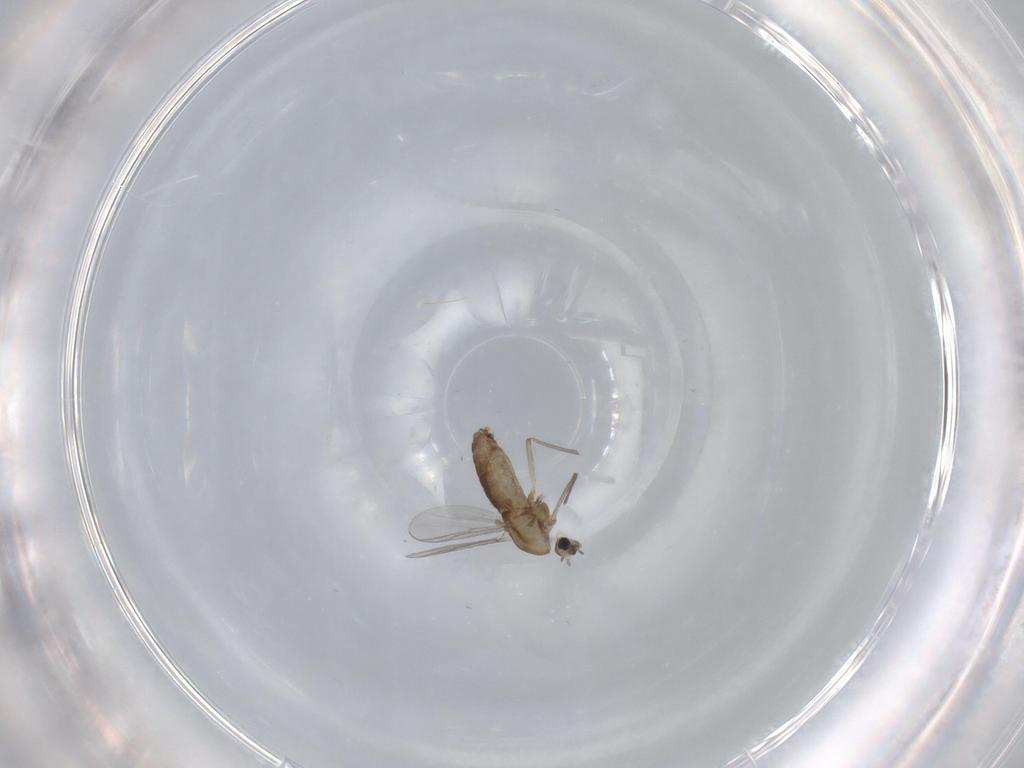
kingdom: Animalia
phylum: Arthropoda
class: Insecta
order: Diptera
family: Chironomidae
